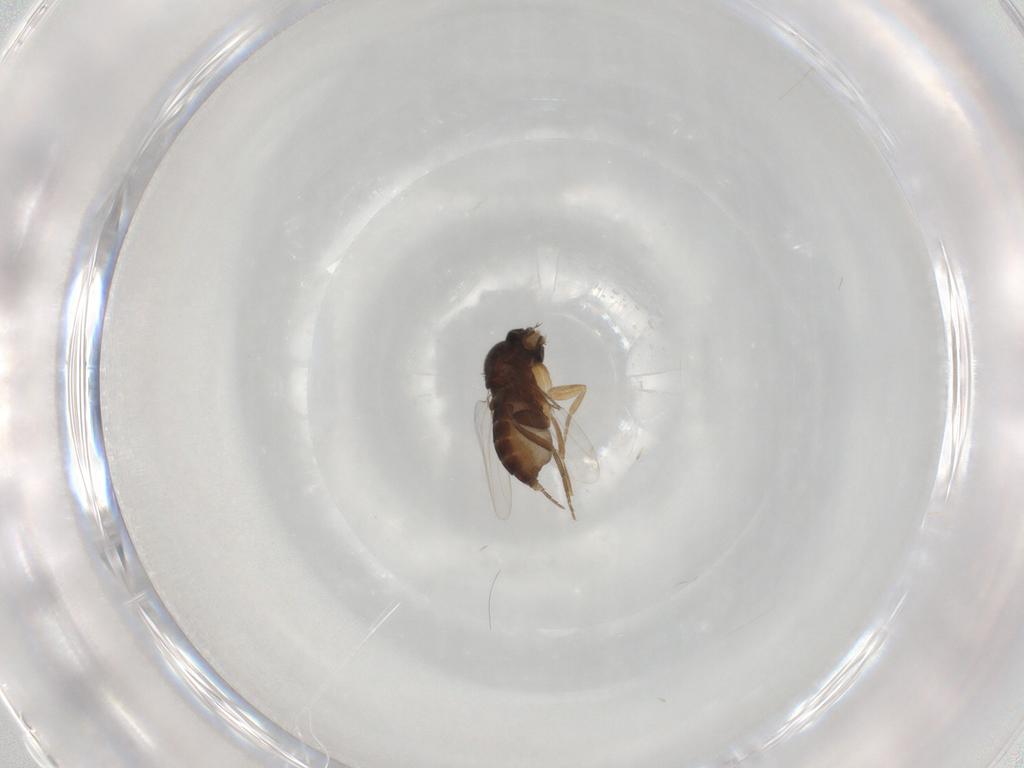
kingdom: Animalia
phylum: Arthropoda
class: Insecta
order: Diptera
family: Phoridae
